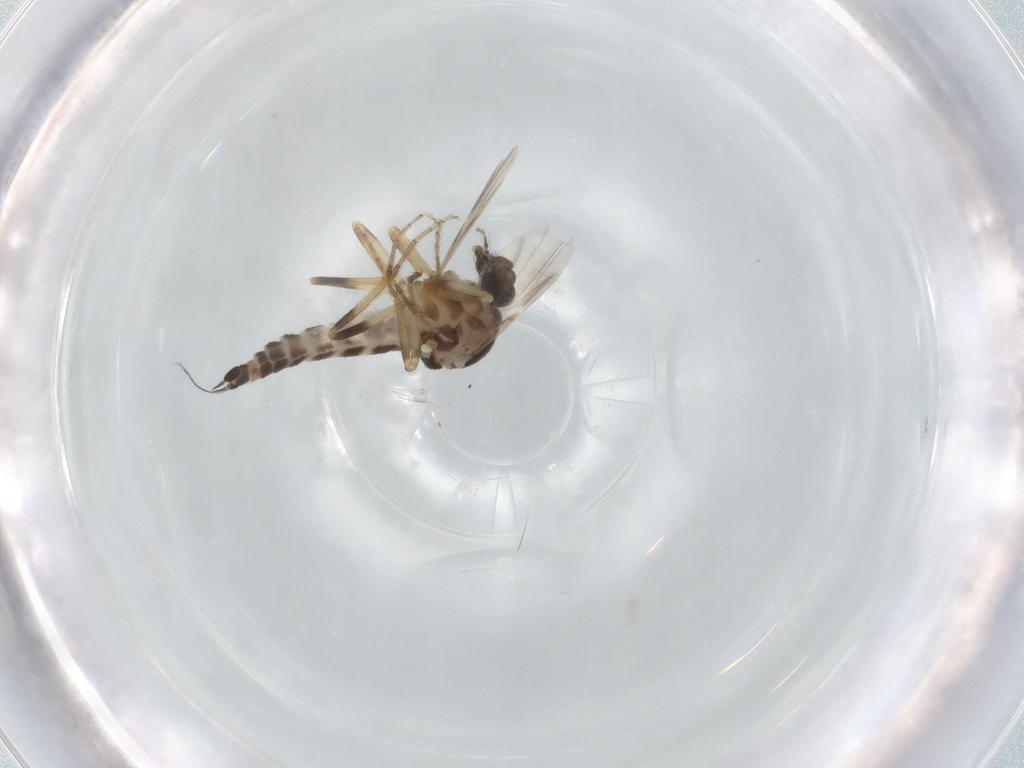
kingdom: Animalia
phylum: Arthropoda
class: Insecta
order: Diptera
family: Ceratopogonidae
